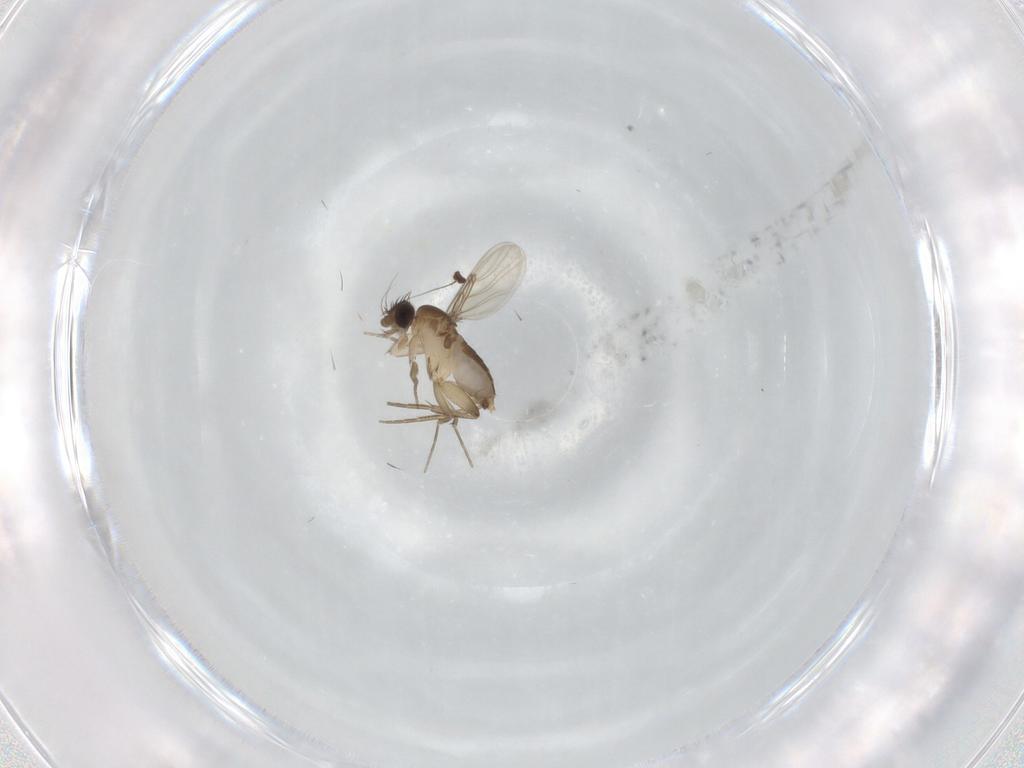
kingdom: Animalia
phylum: Arthropoda
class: Insecta
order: Diptera
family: Phoridae
